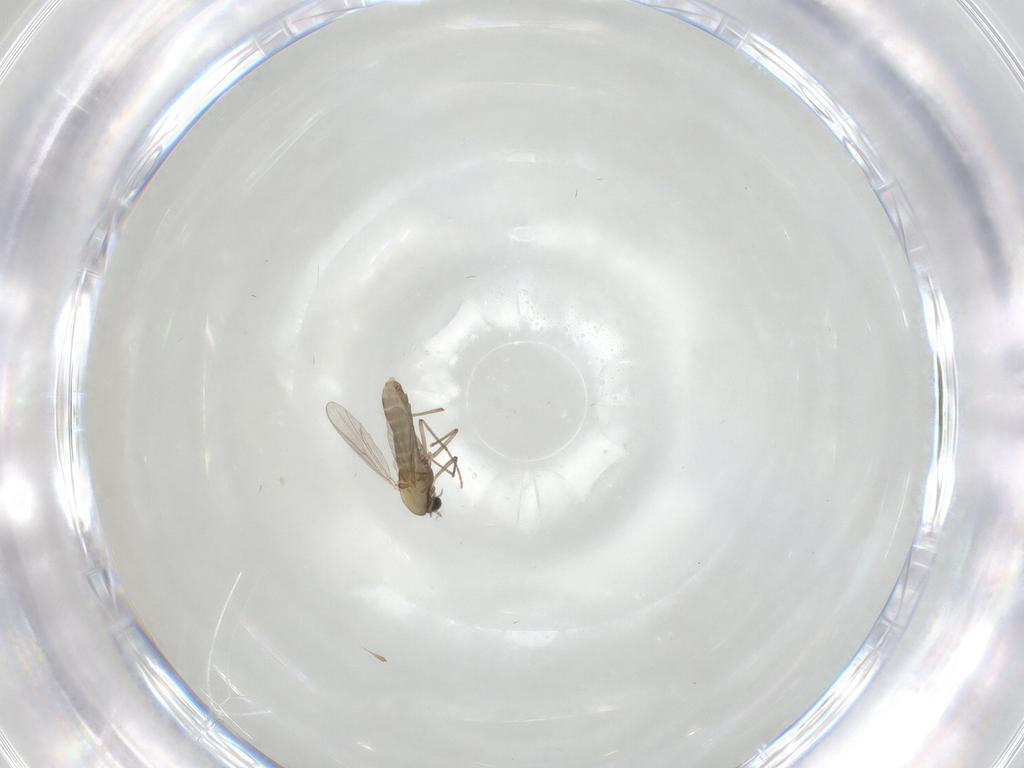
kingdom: Animalia
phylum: Arthropoda
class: Insecta
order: Diptera
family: Chironomidae
